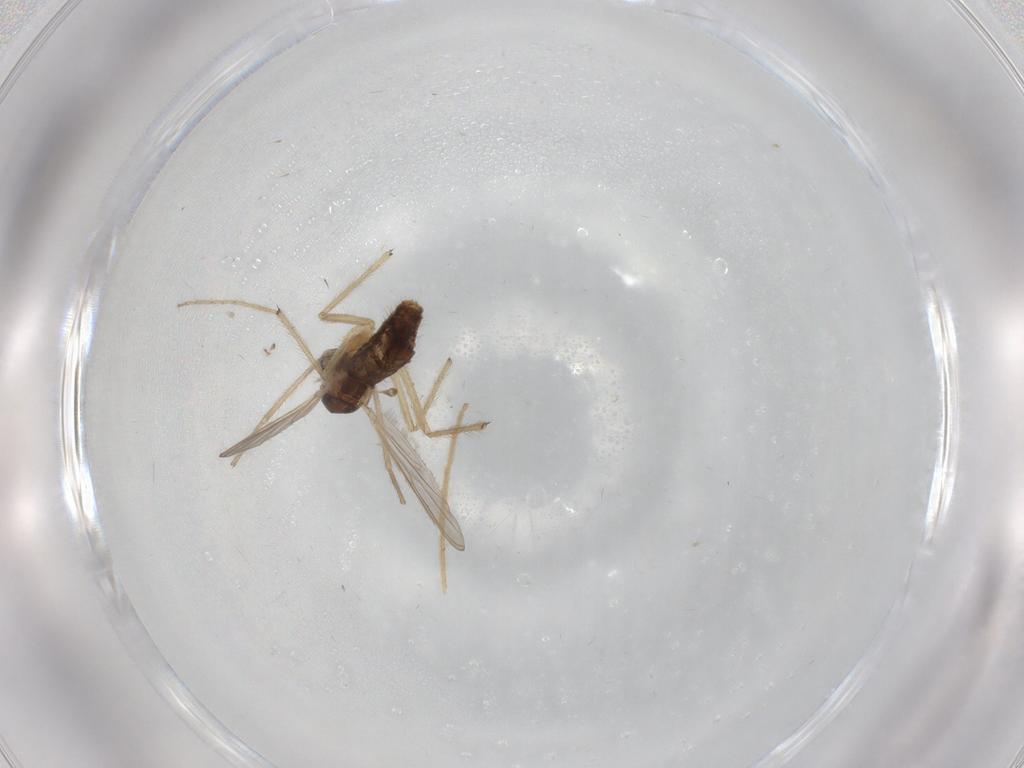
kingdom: Animalia
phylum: Arthropoda
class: Insecta
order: Diptera
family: Chironomidae
